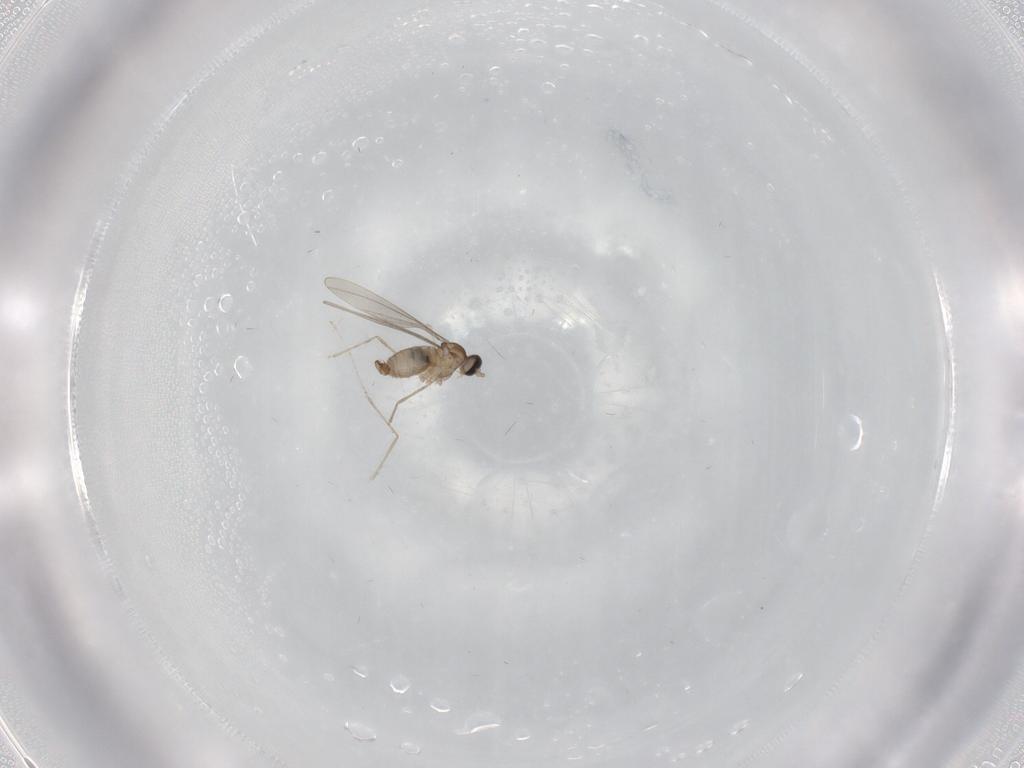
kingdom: Animalia
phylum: Arthropoda
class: Insecta
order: Diptera
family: Chironomidae
